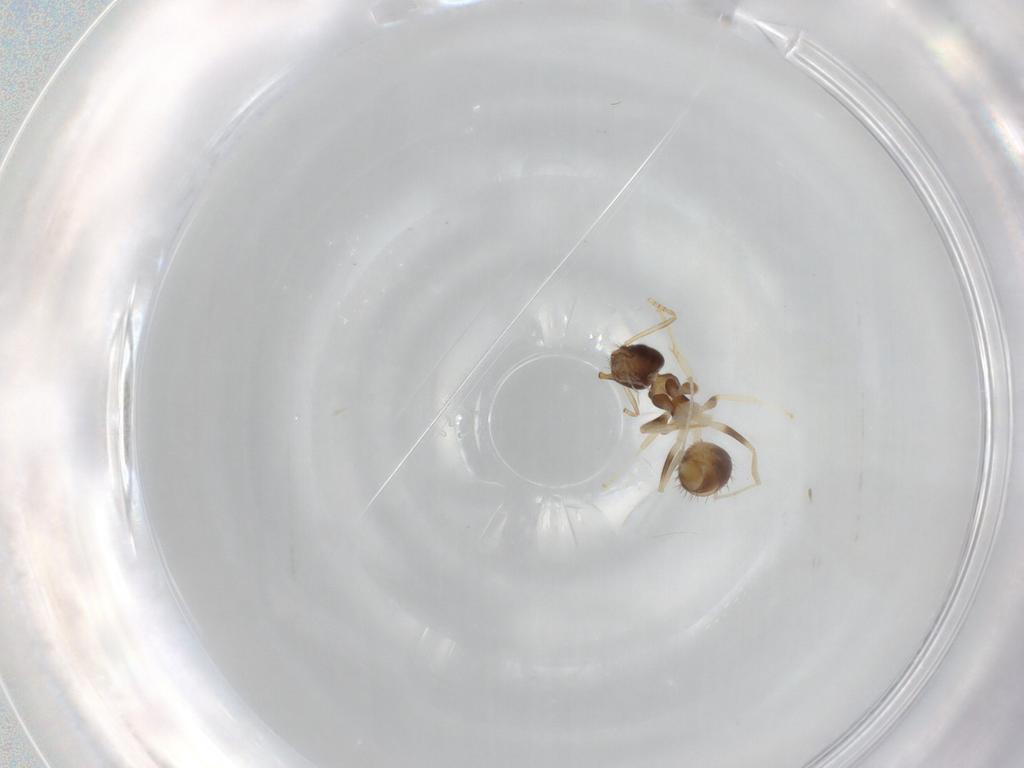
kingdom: Animalia
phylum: Arthropoda
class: Insecta
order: Hymenoptera
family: Formicidae
